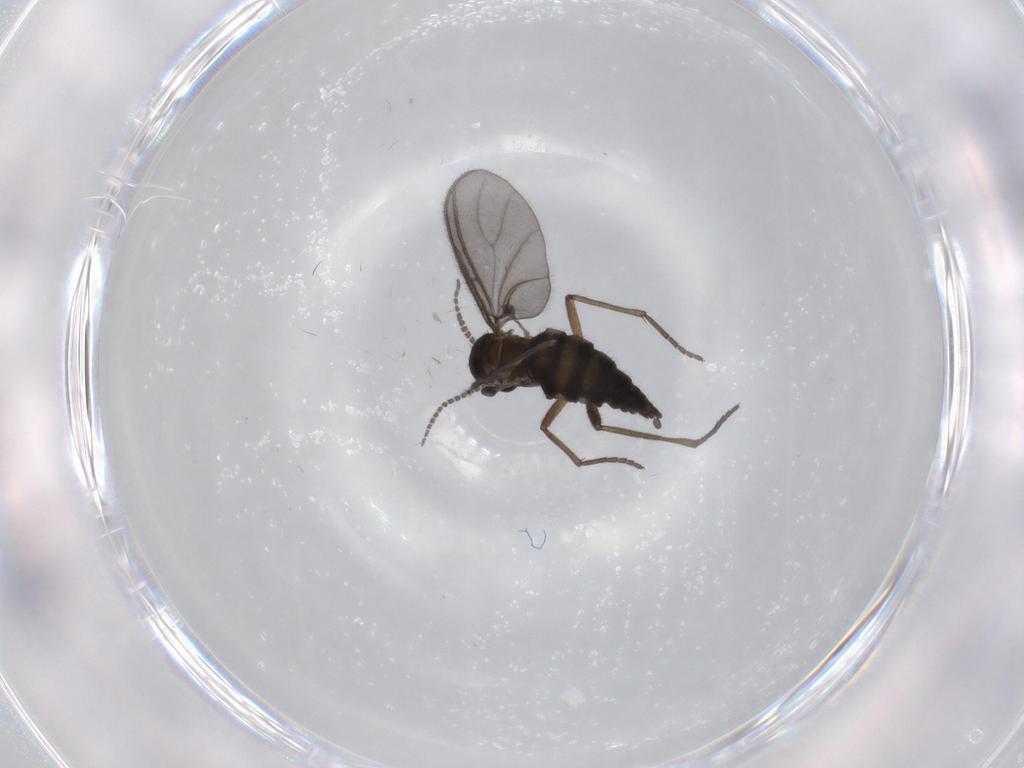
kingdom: Animalia
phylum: Arthropoda
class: Insecta
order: Diptera
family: Sciaridae
